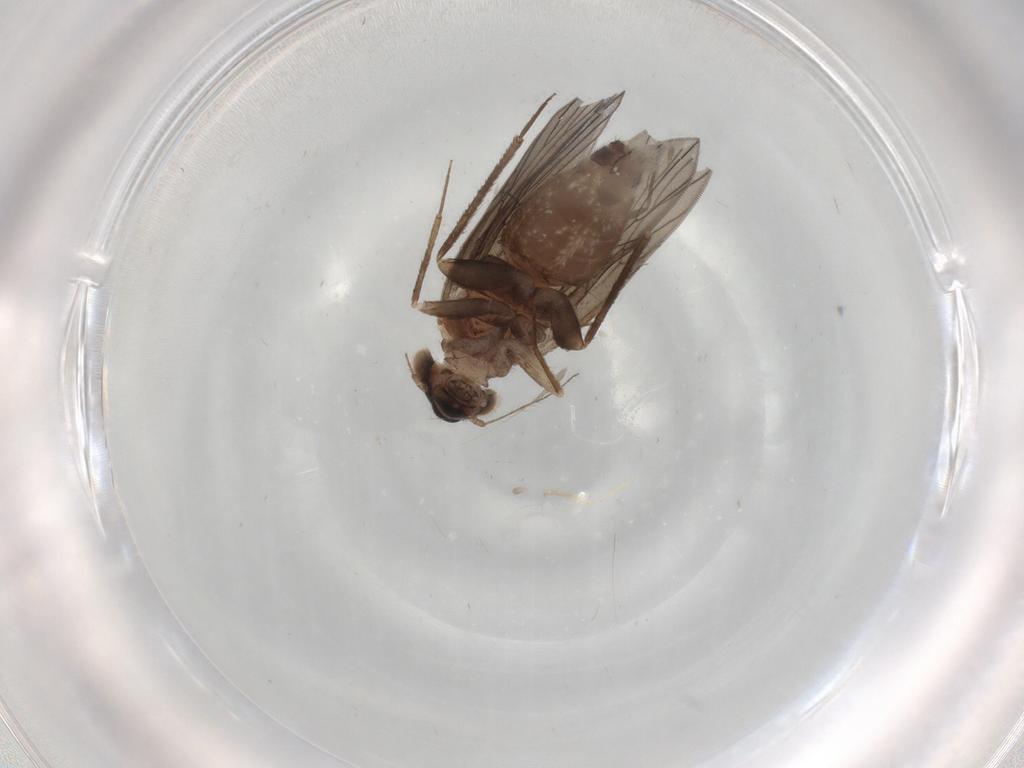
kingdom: Animalia
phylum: Arthropoda
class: Insecta
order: Psocodea
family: Lepidopsocidae
